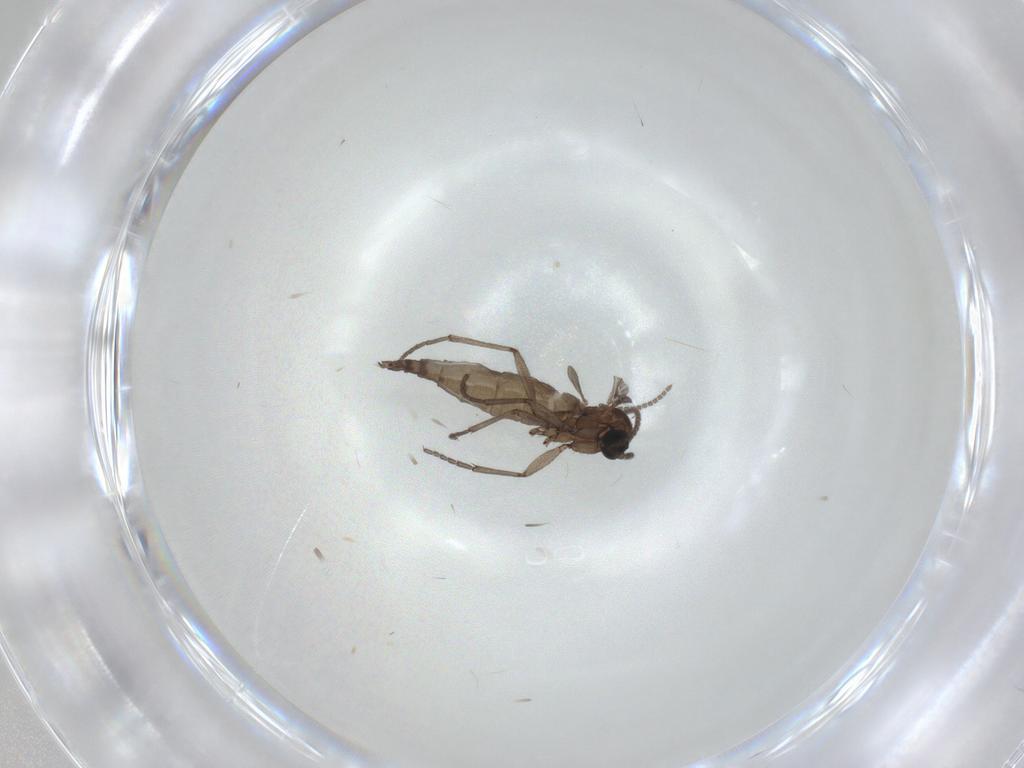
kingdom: Animalia
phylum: Arthropoda
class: Insecta
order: Diptera
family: Sciaridae
